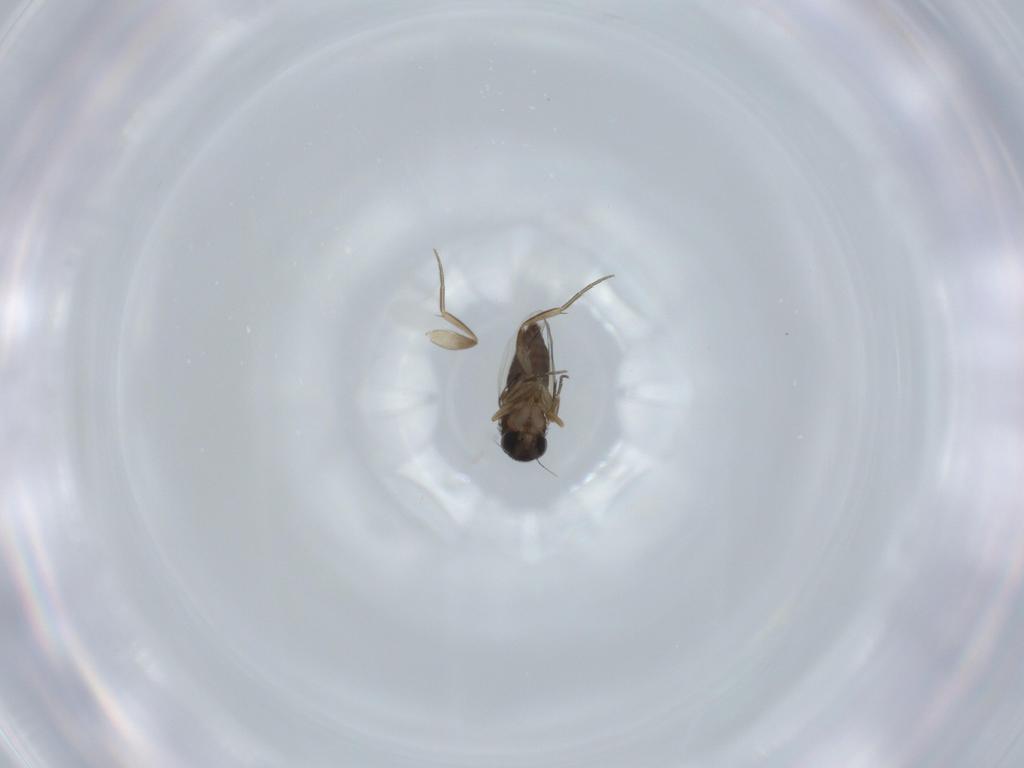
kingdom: Animalia
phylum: Arthropoda
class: Insecta
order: Diptera
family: Phoridae
